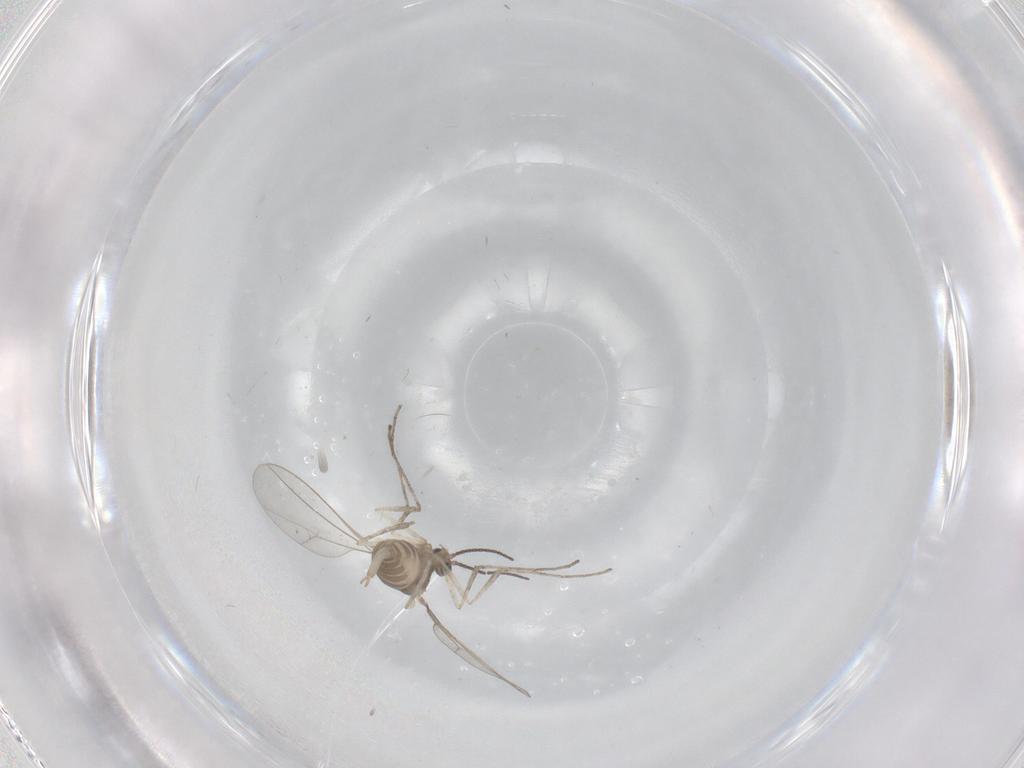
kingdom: Animalia
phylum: Arthropoda
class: Insecta
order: Diptera
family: Cecidomyiidae
